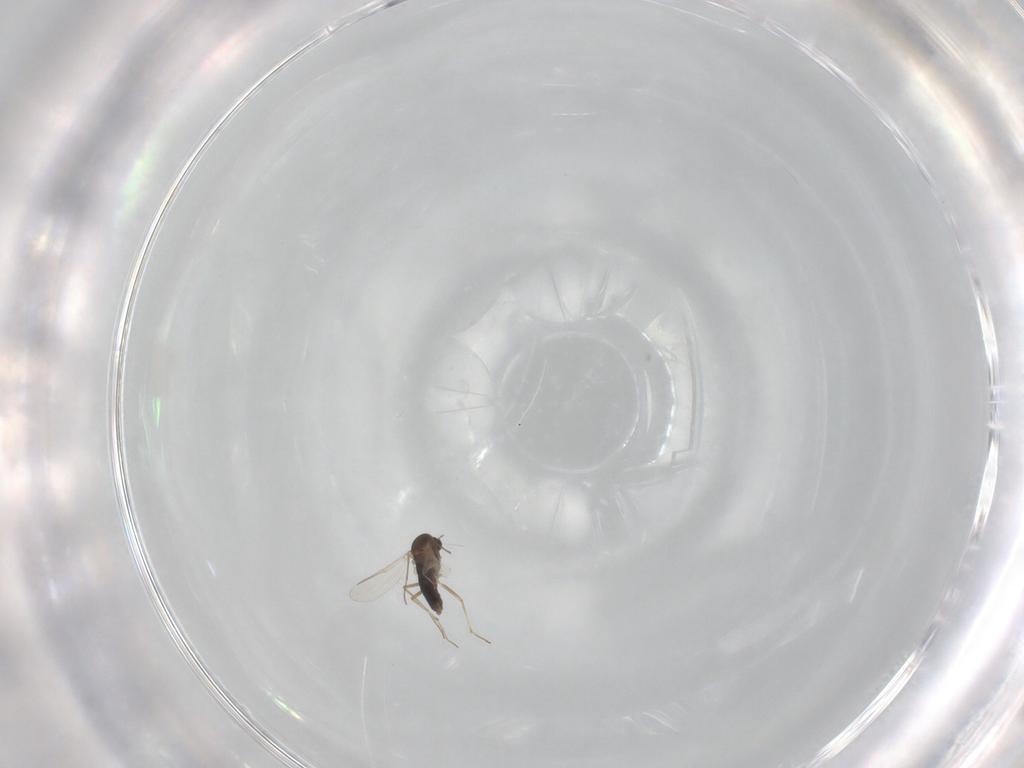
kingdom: Animalia
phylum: Arthropoda
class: Insecta
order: Diptera
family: Chironomidae
